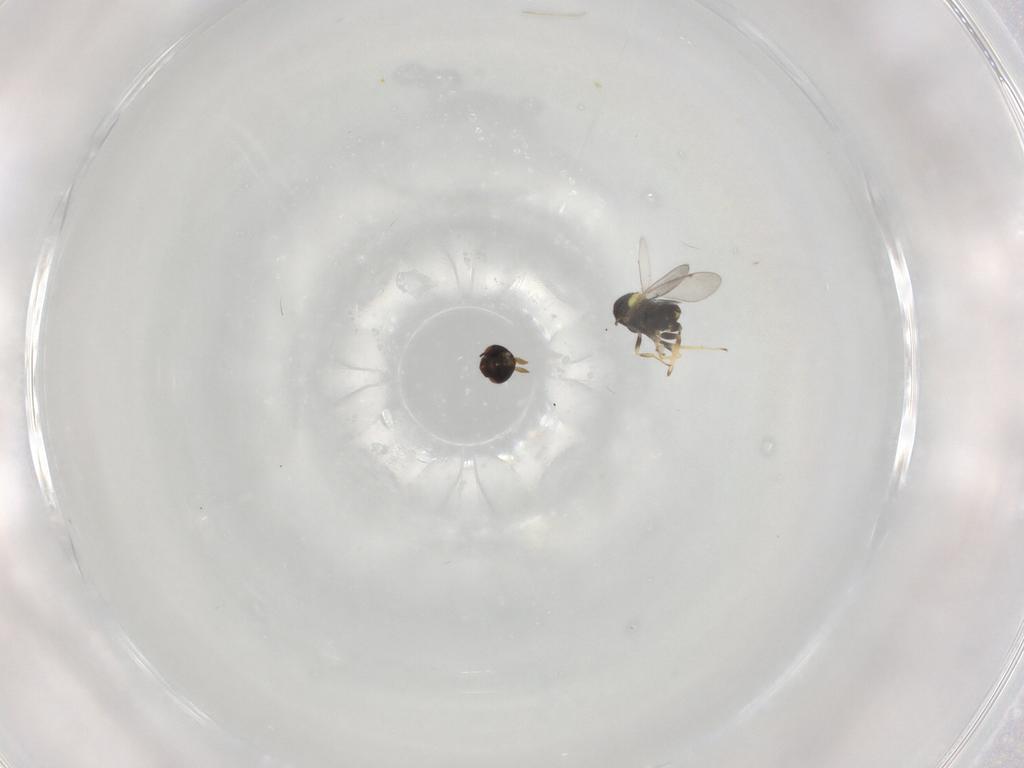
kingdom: Animalia
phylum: Arthropoda
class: Insecta
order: Hymenoptera
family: Aphelinidae
